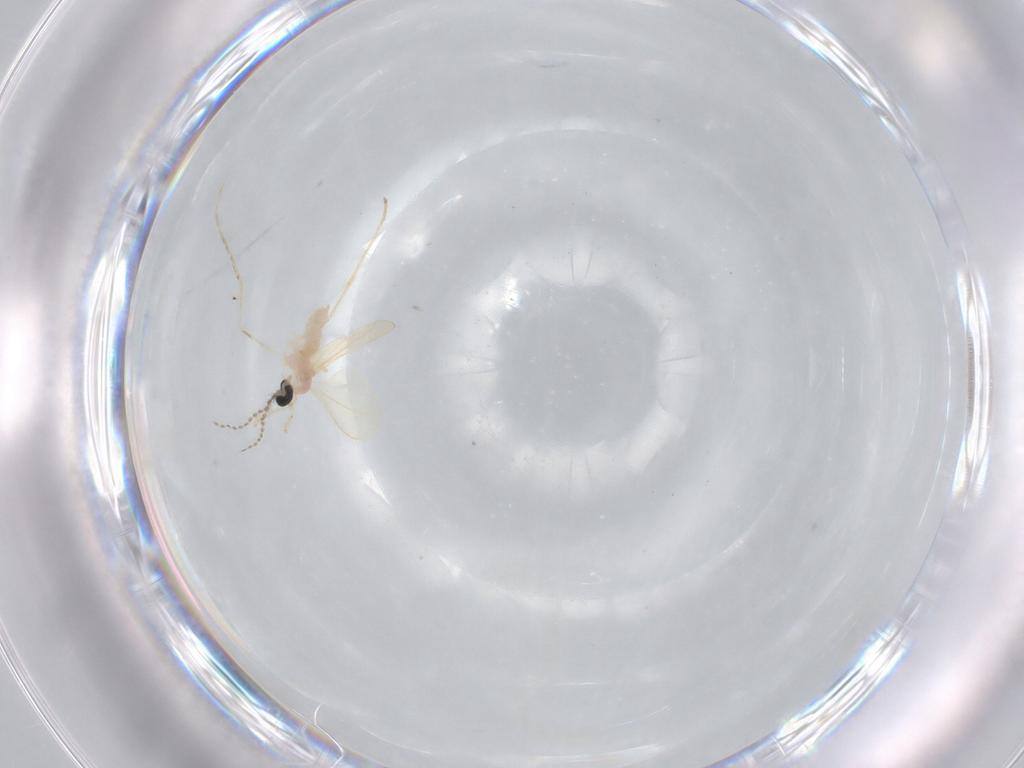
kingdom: Animalia
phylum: Arthropoda
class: Insecta
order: Diptera
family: Cecidomyiidae
